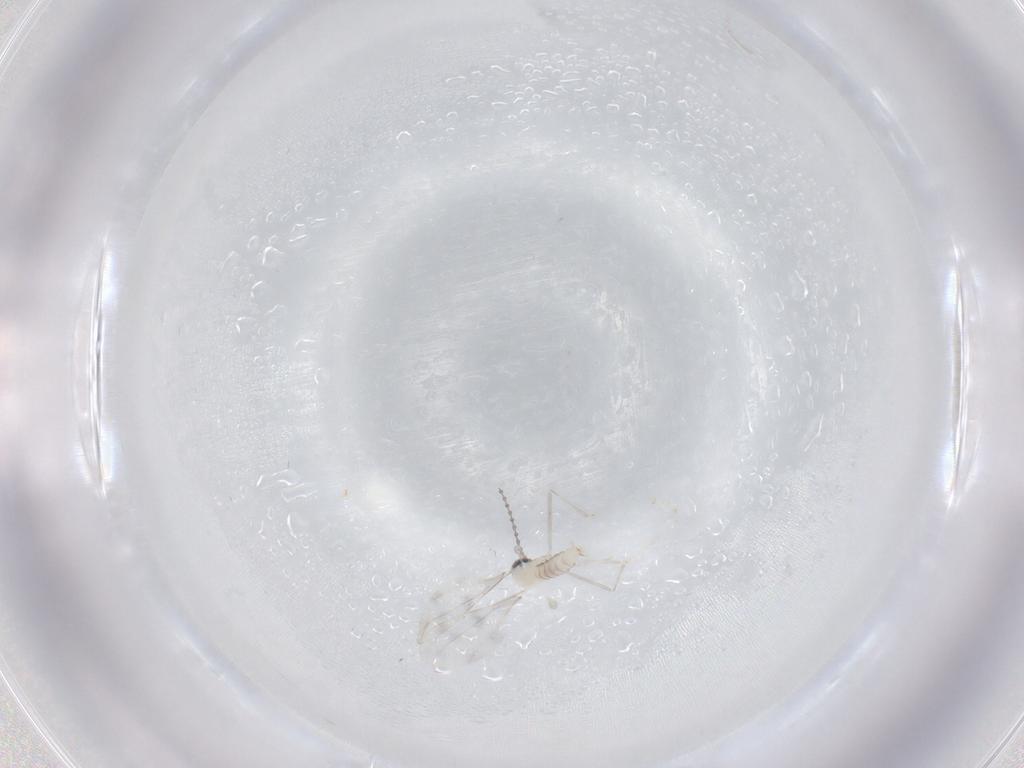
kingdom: Animalia
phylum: Arthropoda
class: Insecta
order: Diptera
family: Cecidomyiidae
